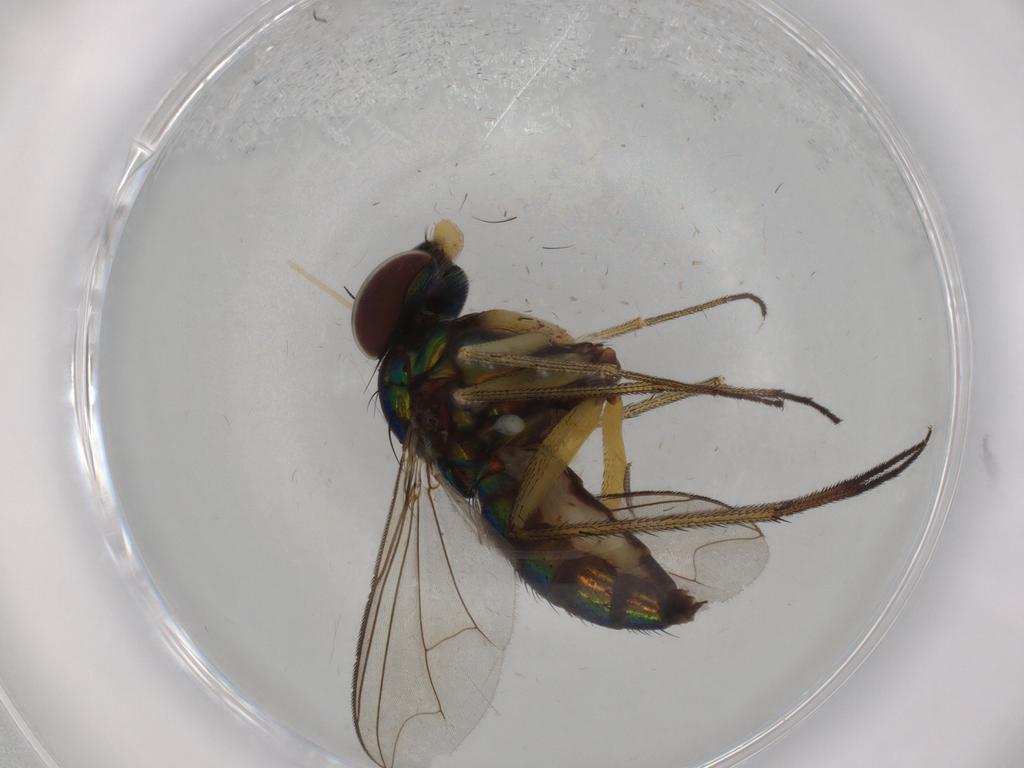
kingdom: Animalia
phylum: Arthropoda
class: Insecta
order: Diptera
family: Dolichopodidae
